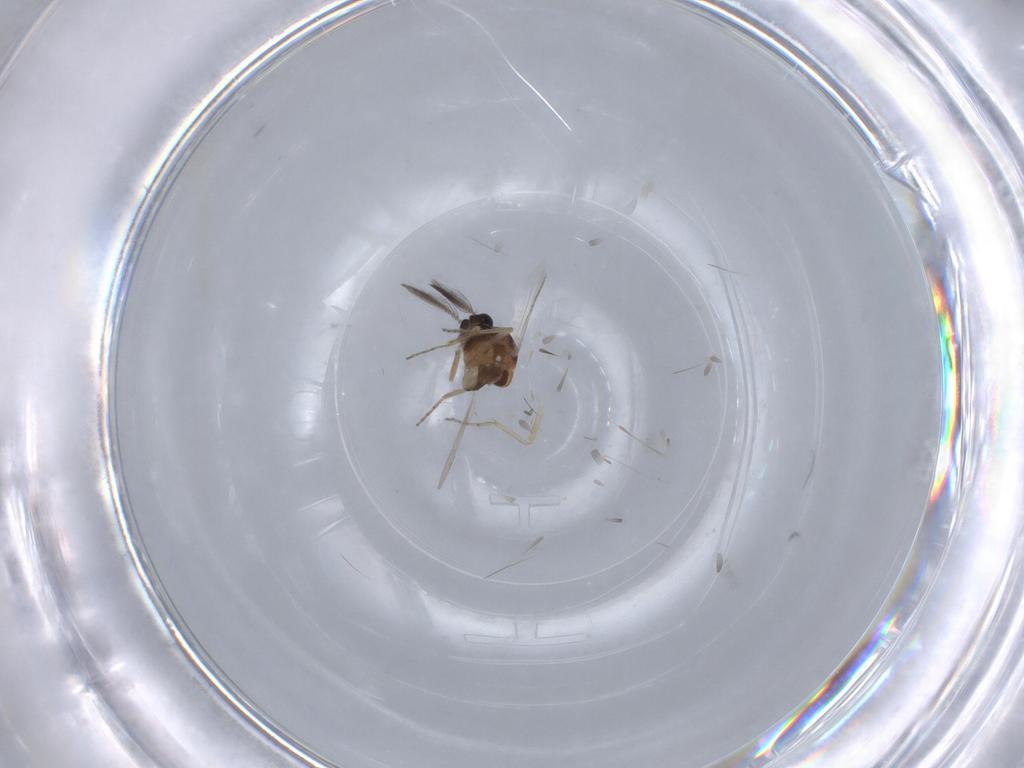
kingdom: Animalia
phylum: Arthropoda
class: Insecta
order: Diptera
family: Ceratopogonidae
